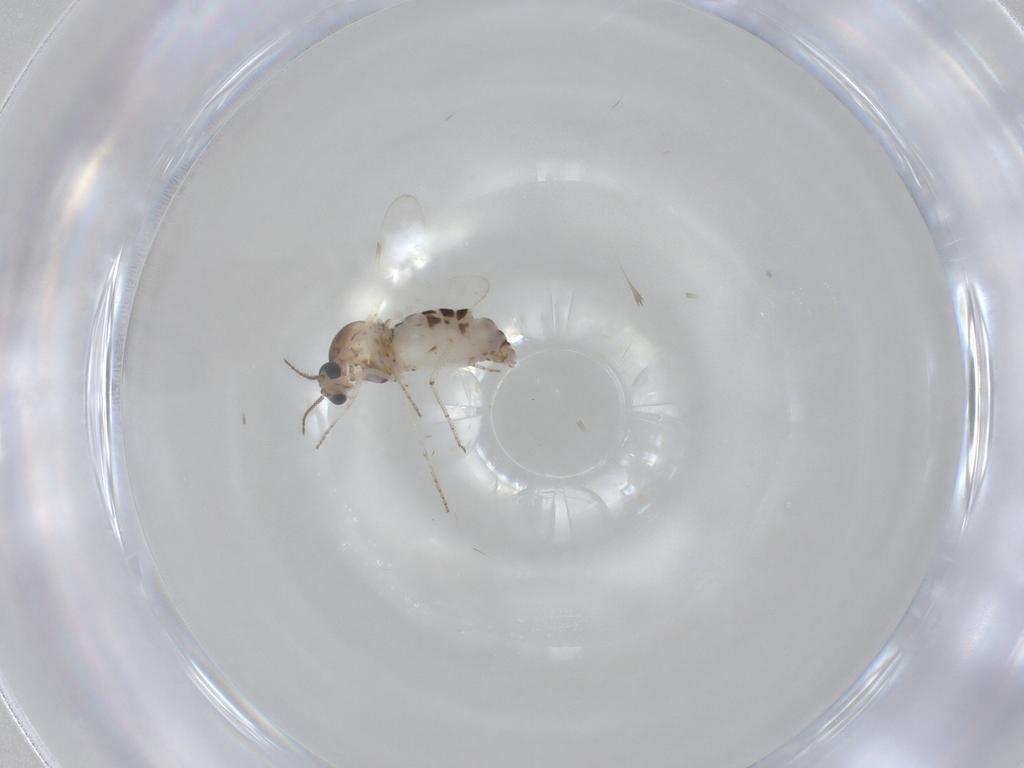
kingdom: Animalia
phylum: Arthropoda
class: Insecta
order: Diptera
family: Ceratopogonidae
